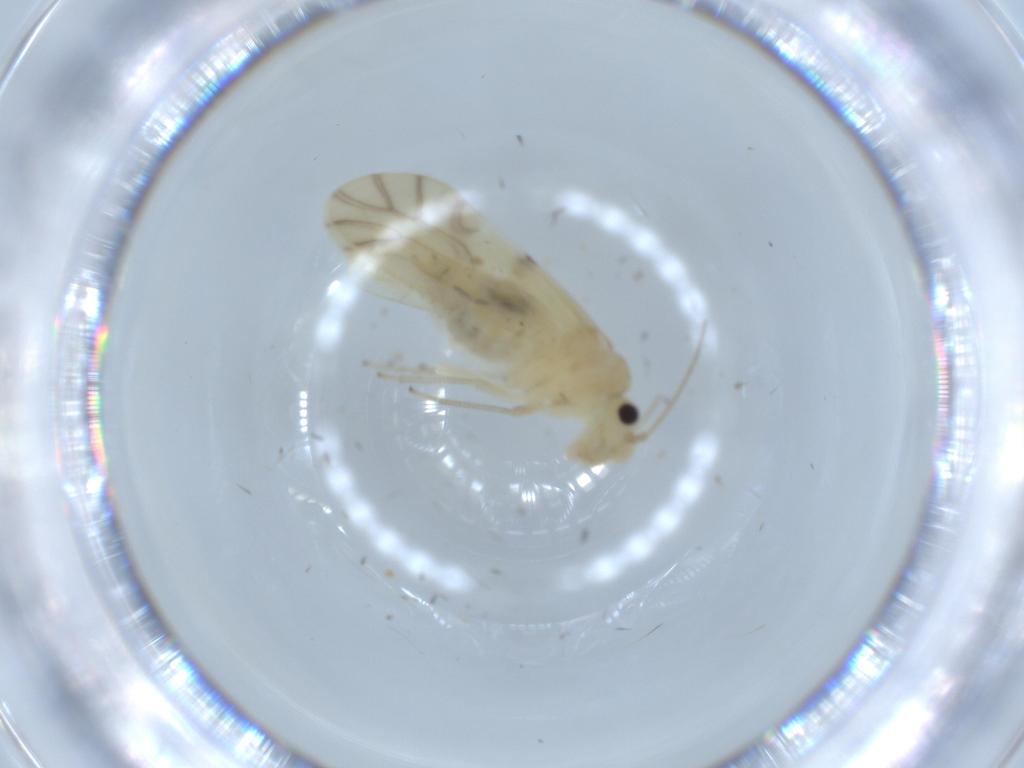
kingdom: Animalia
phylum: Arthropoda
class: Insecta
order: Psocodea
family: Caeciliusidae
